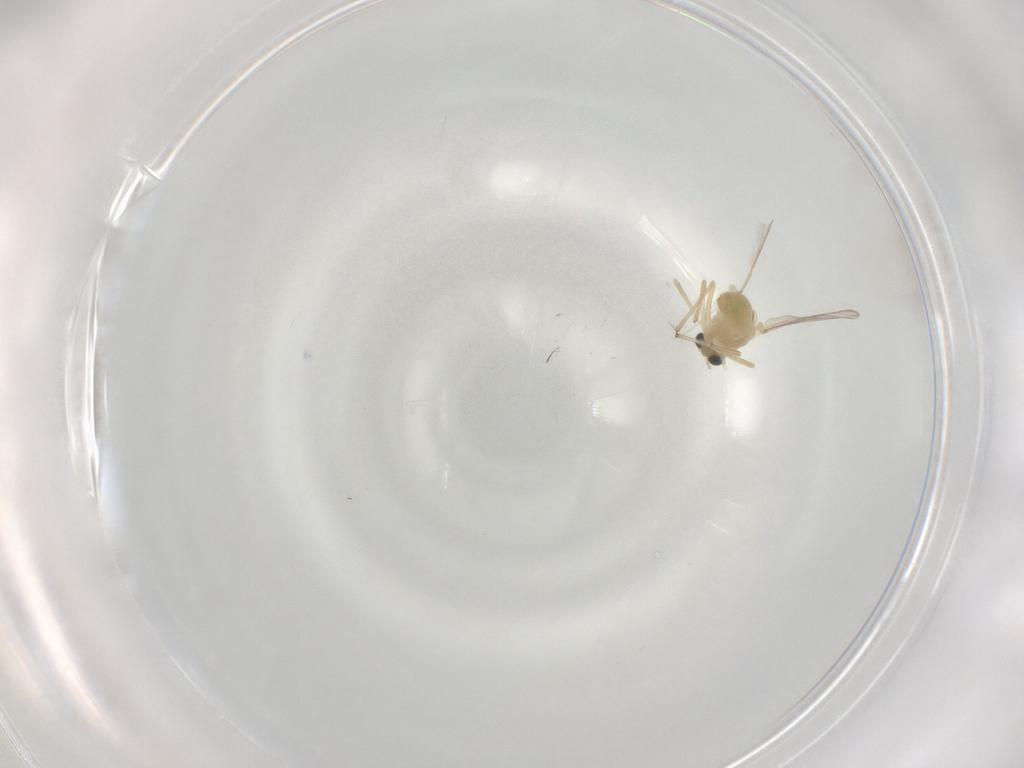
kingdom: Animalia
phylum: Arthropoda
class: Insecta
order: Diptera
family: Chironomidae
